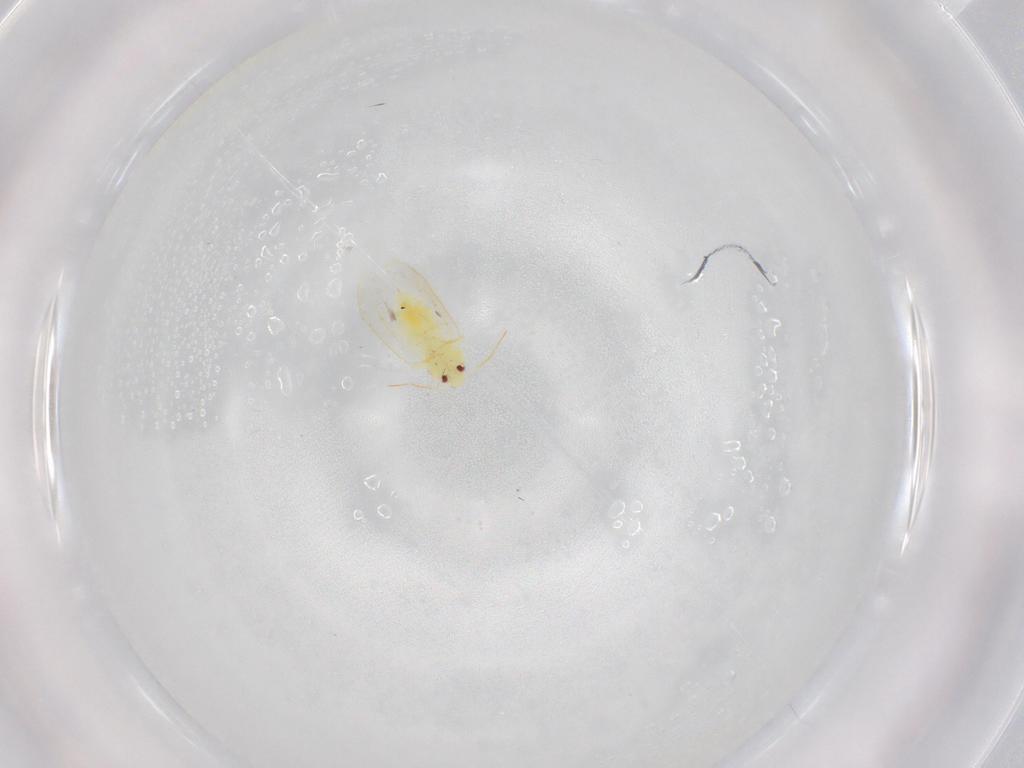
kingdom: Animalia
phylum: Arthropoda
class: Insecta
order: Hemiptera
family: Aleyrodidae
